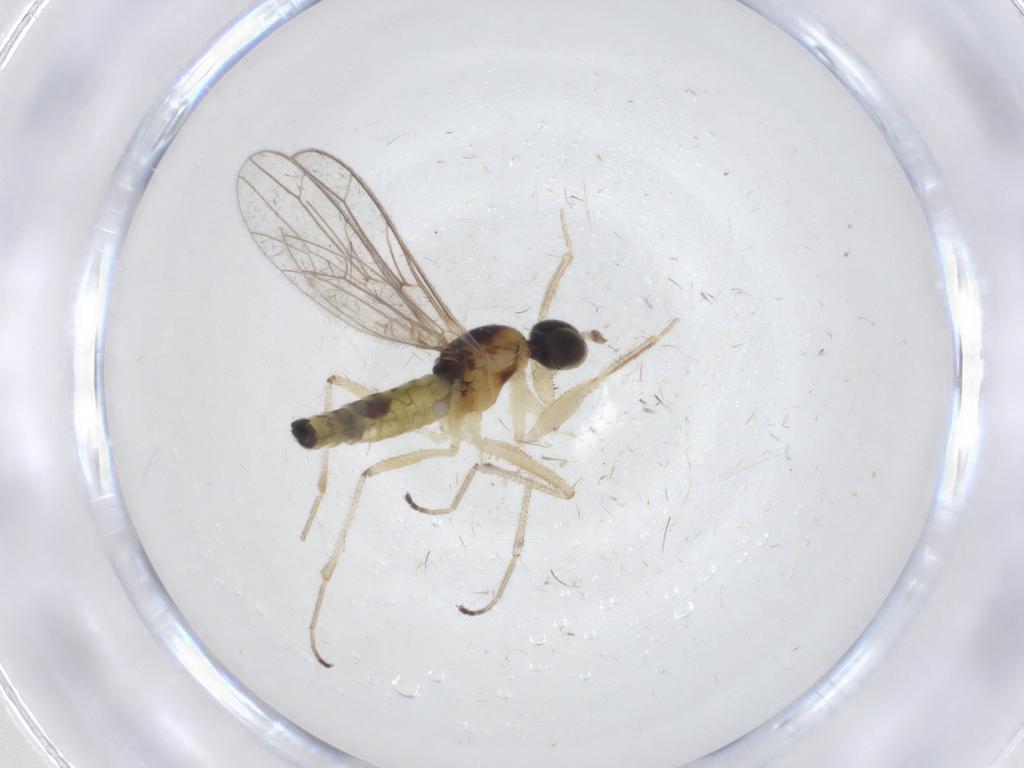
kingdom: Animalia
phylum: Arthropoda
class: Insecta
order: Diptera
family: Empididae
